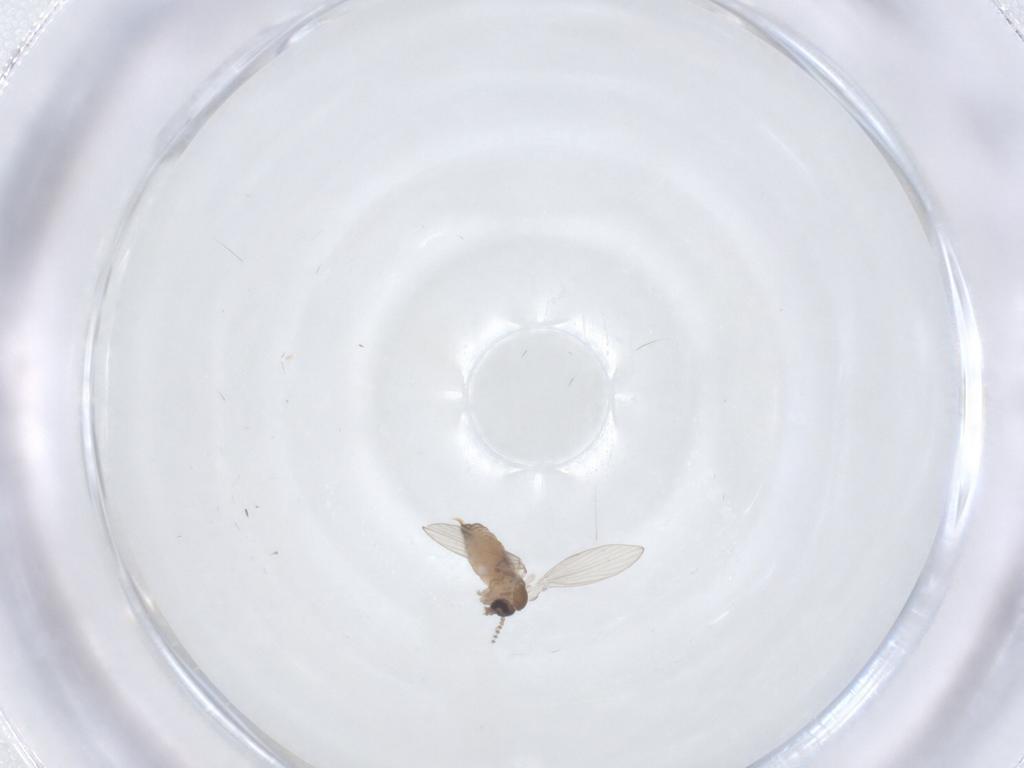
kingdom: Animalia
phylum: Arthropoda
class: Insecta
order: Diptera
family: Psychodidae
